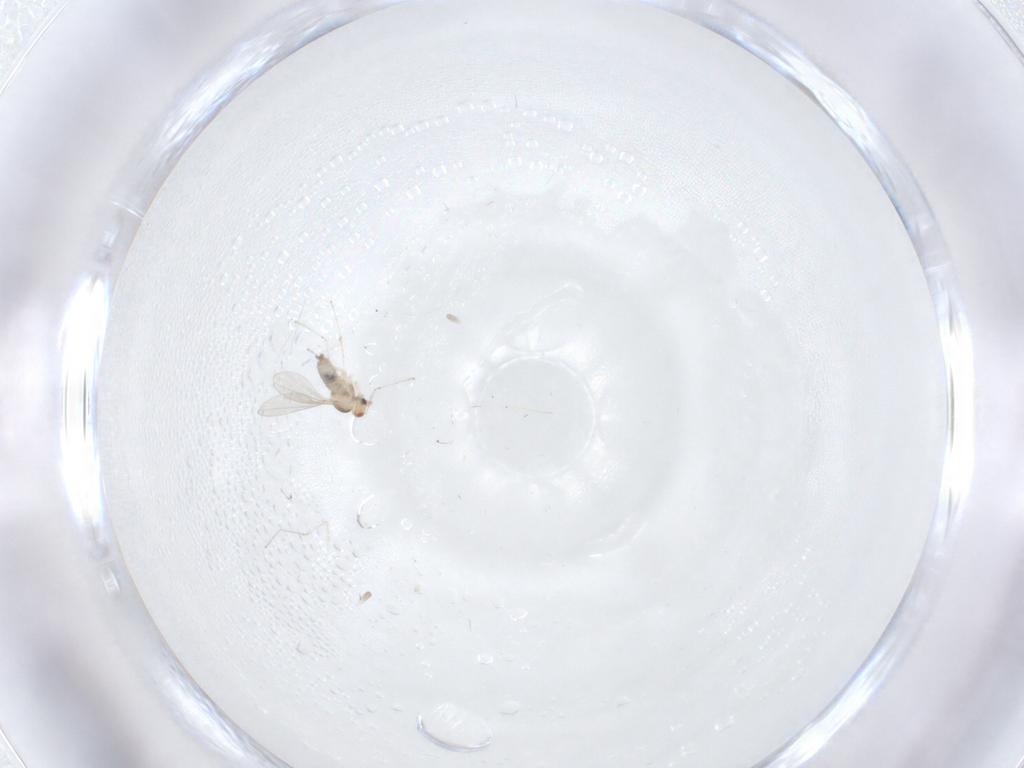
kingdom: Animalia
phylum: Arthropoda
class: Insecta
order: Diptera
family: Cecidomyiidae
